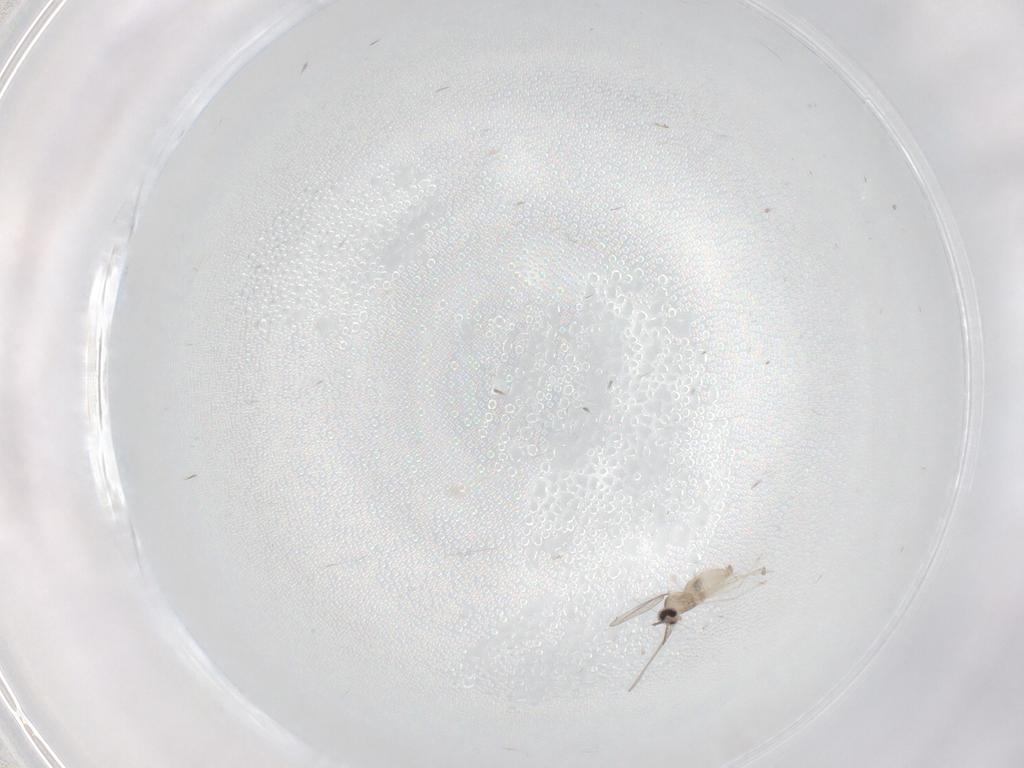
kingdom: Animalia
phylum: Arthropoda
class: Insecta
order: Diptera
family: Cecidomyiidae
